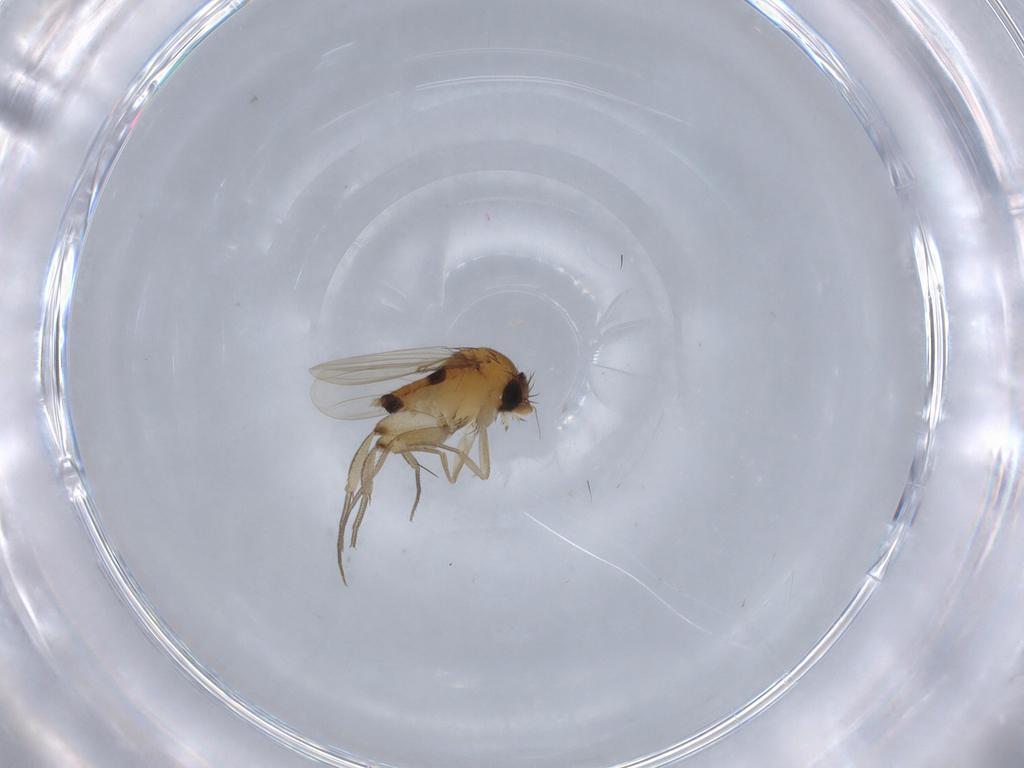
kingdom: Animalia
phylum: Arthropoda
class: Insecta
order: Diptera
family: Phoridae
